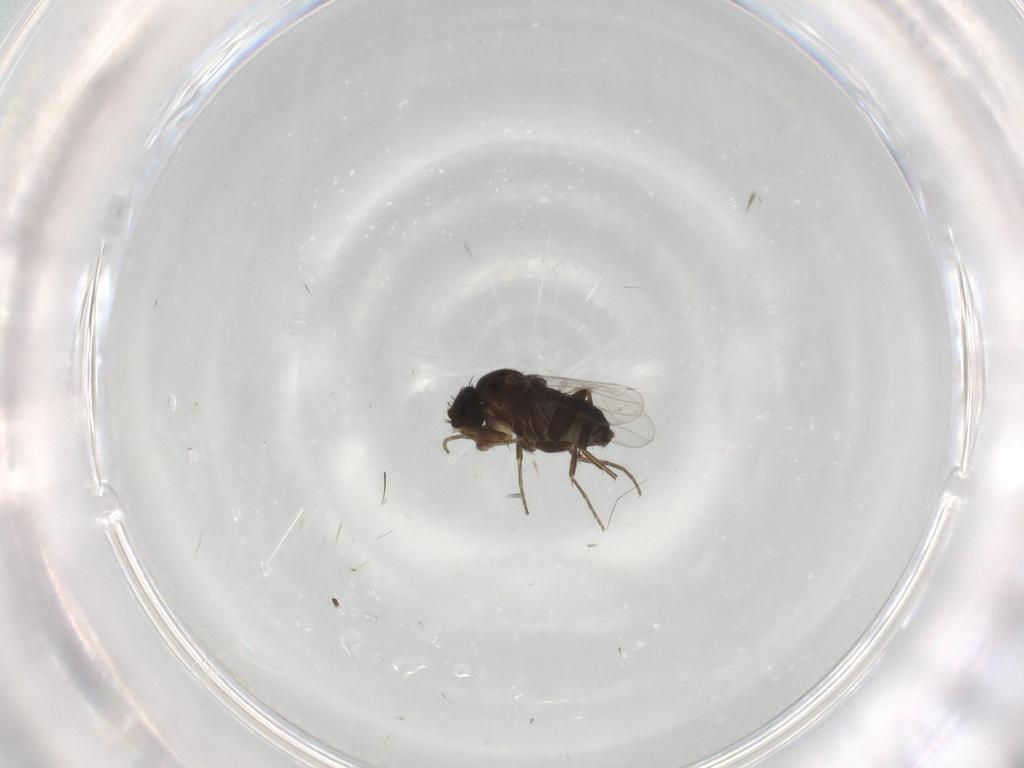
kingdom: Animalia
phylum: Arthropoda
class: Insecta
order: Diptera
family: Phoridae
